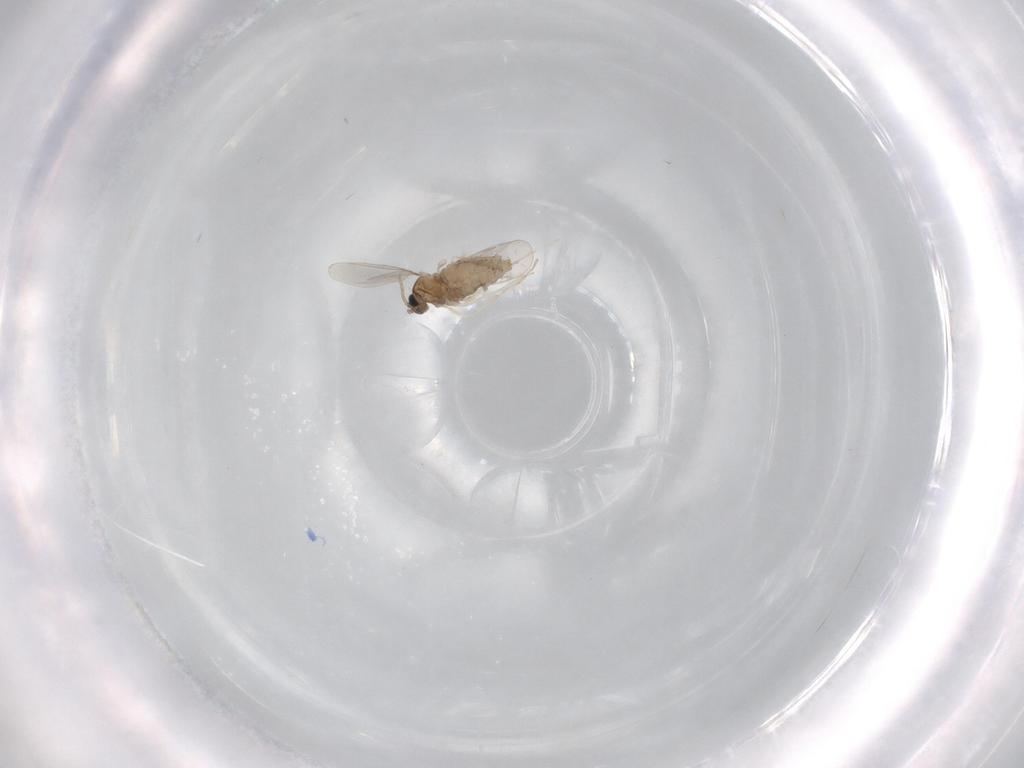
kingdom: Animalia
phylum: Arthropoda
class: Insecta
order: Diptera
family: Cecidomyiidae
